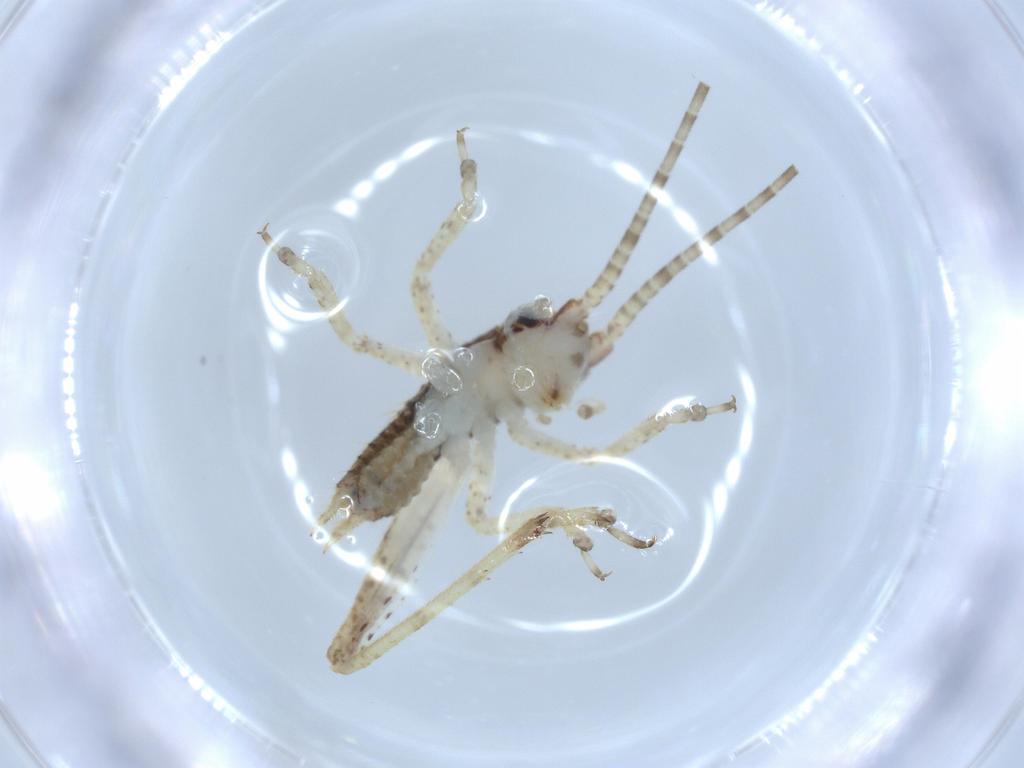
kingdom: Animalia
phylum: Arthropoda
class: Insecta
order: Orthoptera
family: Gryllidae
